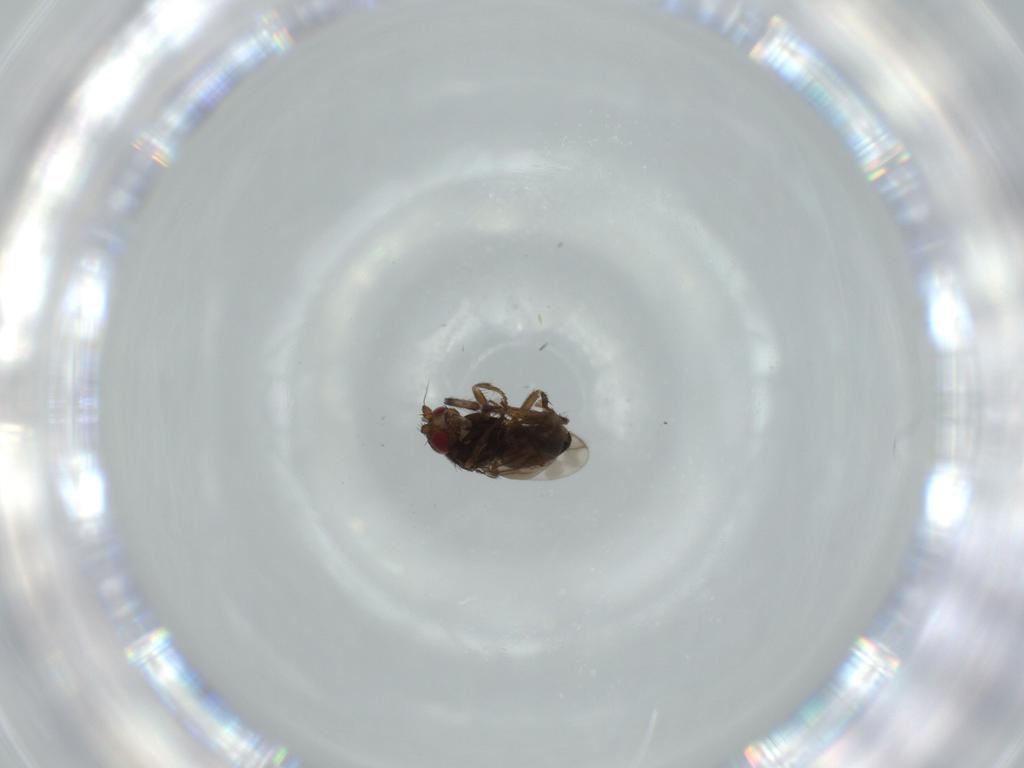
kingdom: Animalia
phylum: Arthropoda
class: Insecta
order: Diptera
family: Sphaeroceridae
